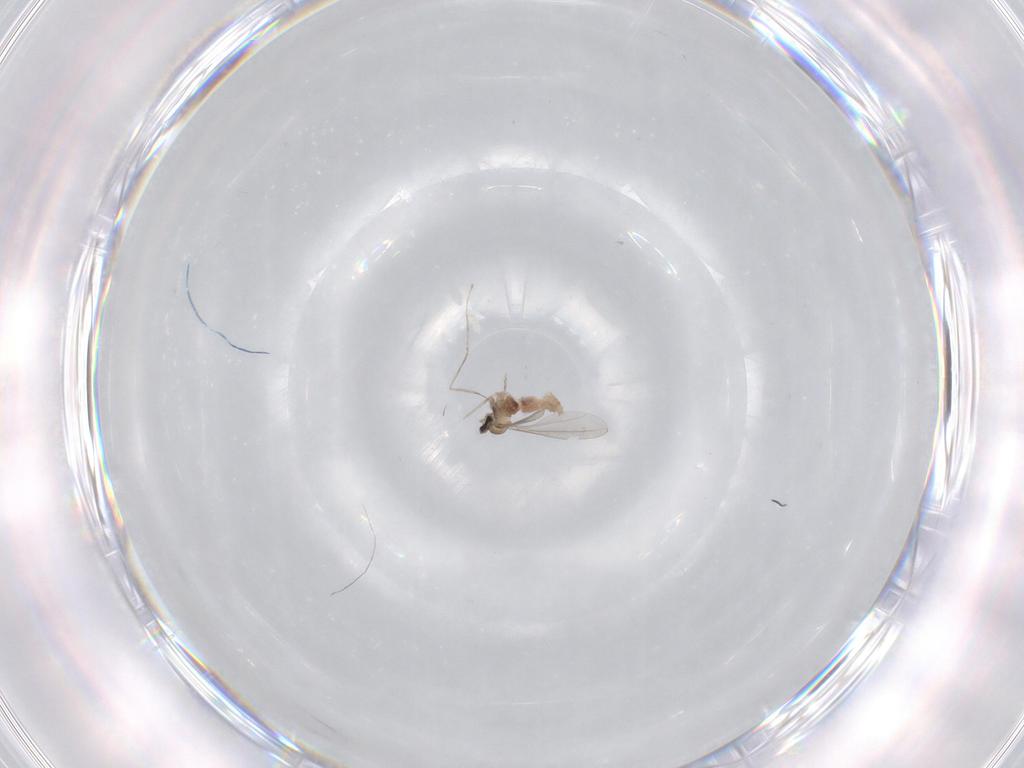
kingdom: Animalia
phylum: Arthropoda
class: Insecta
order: Diptera
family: Cecidomyiidae
